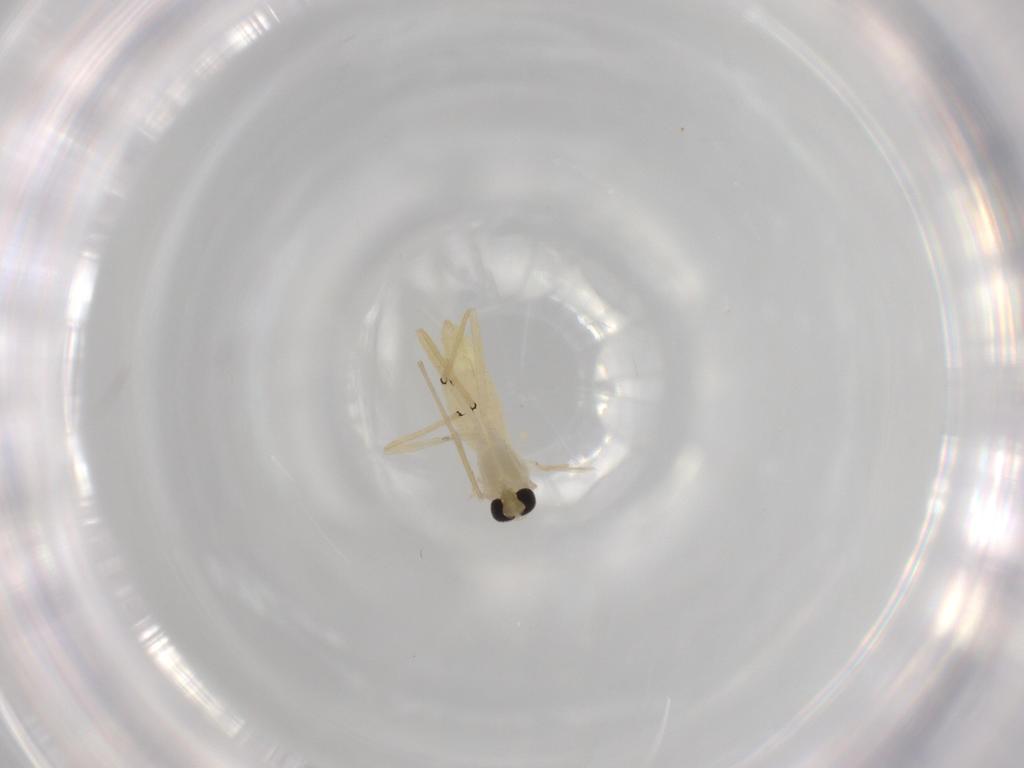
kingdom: Animalia
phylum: Arthropoda
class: Insecta
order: Diptera
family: Chironomidae
